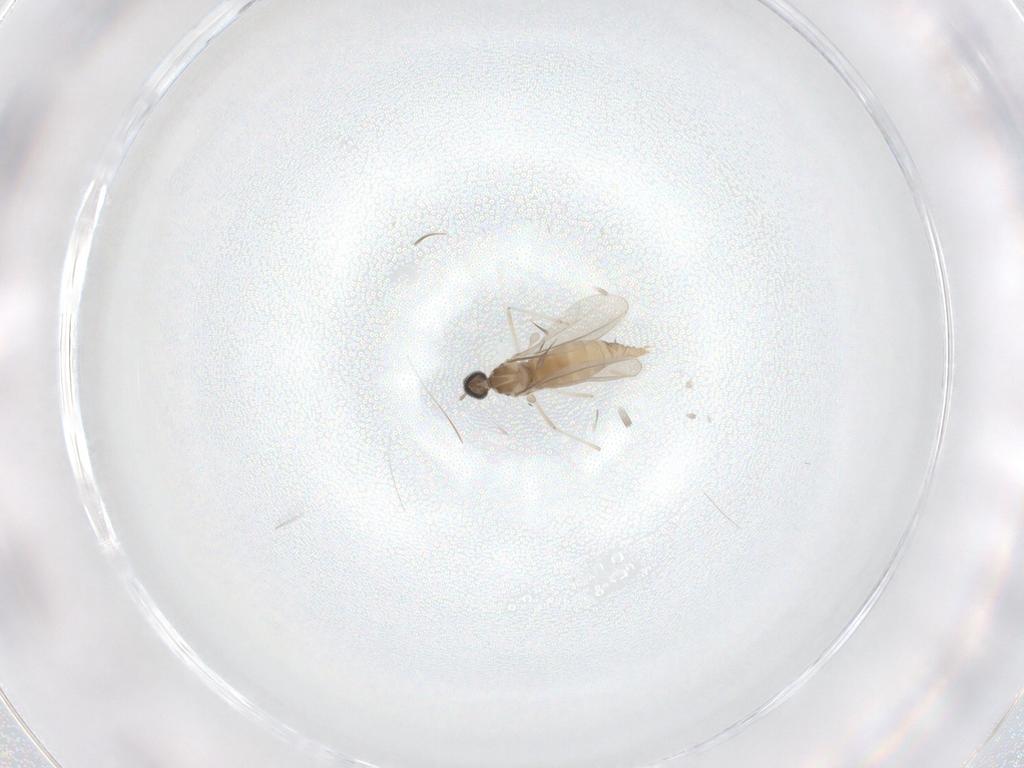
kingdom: Animalia
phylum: Arthropoda
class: Insecta
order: Diptera
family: Cecidomyiidae
